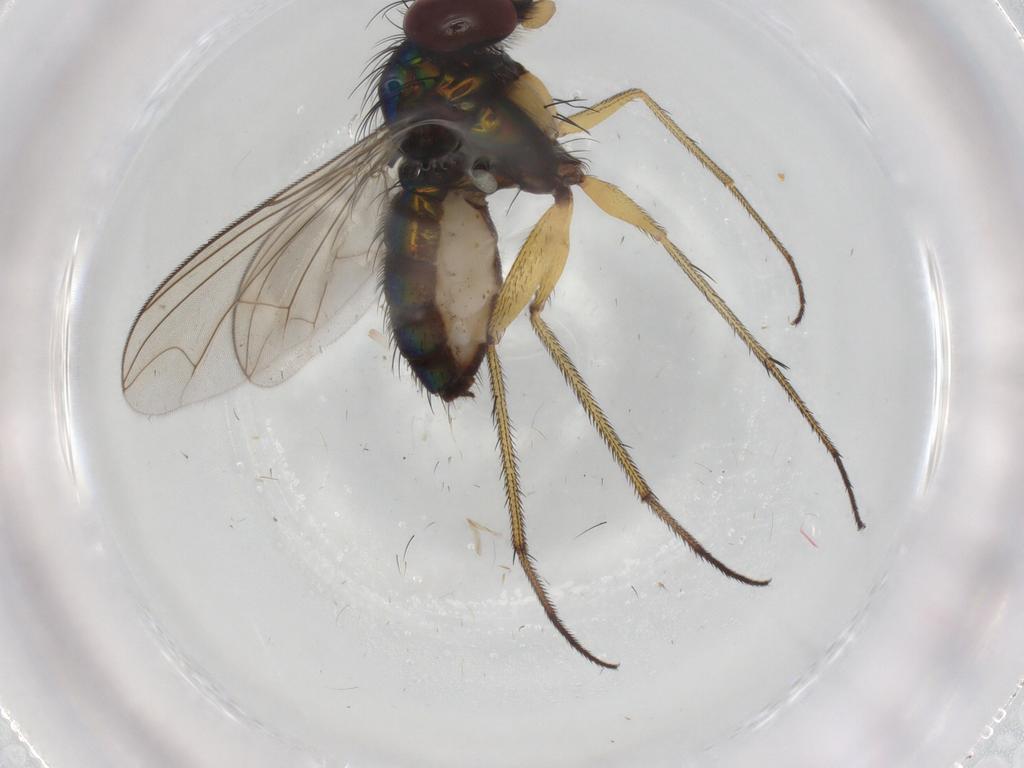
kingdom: Animalia
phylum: Arthropoda
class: Insecta
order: Diptera
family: Dolichopodidae
